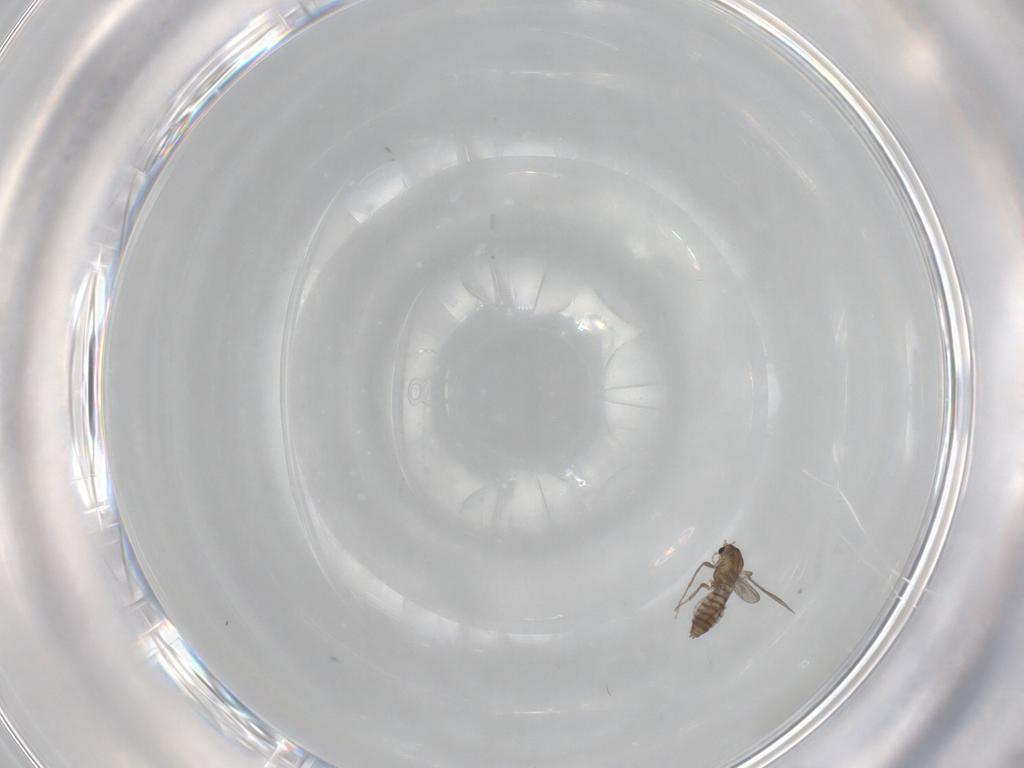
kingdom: Animalia
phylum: Arthropoda
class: Insecta
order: Diptera
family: Chironomidae
